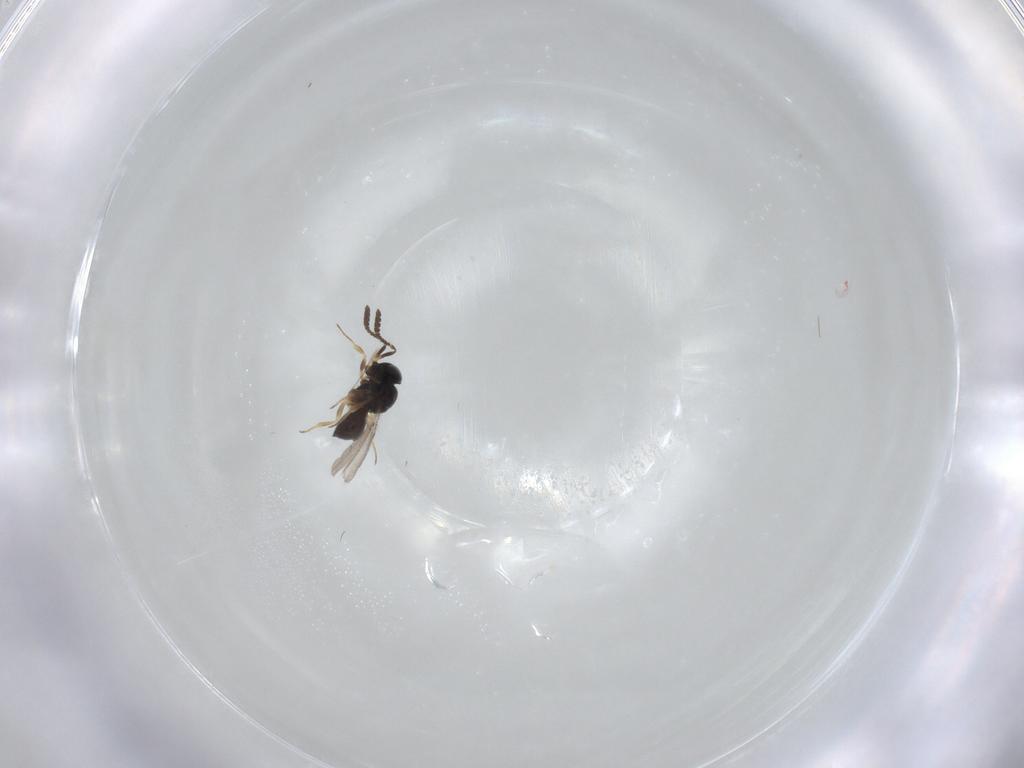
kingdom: Animalia
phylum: Arthropoda
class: Insecta
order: Hymenoptera
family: Scelionidae
